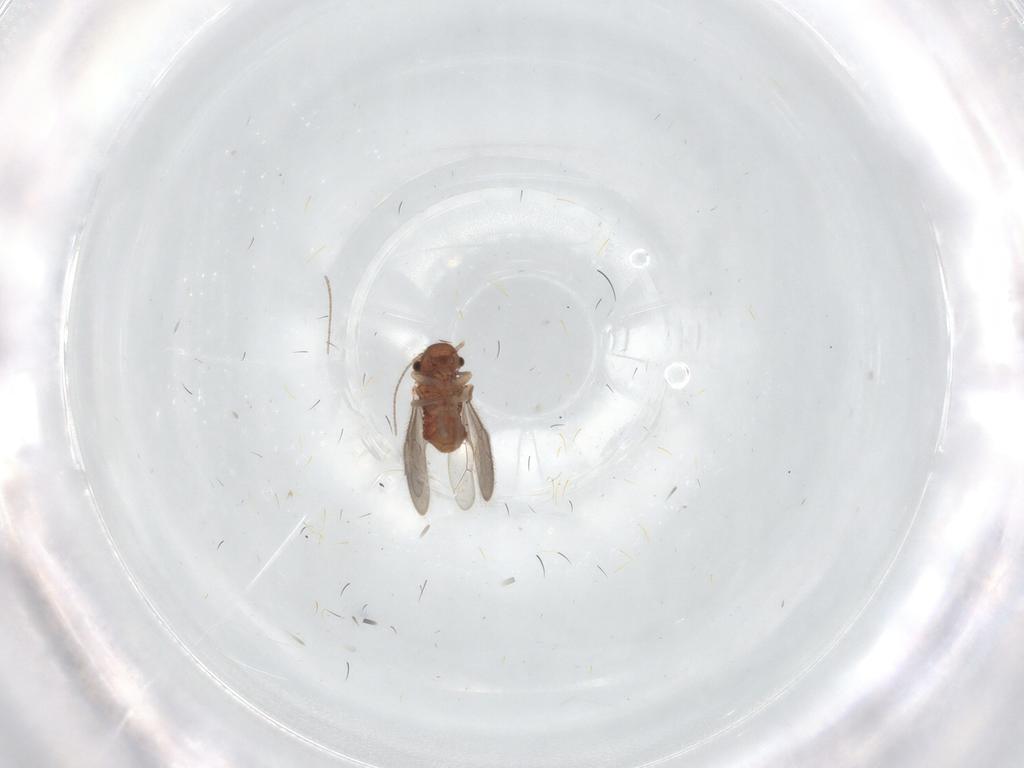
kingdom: Animalia
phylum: Arthropoda
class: Insecta
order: Psocodea
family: Archipsocidae
